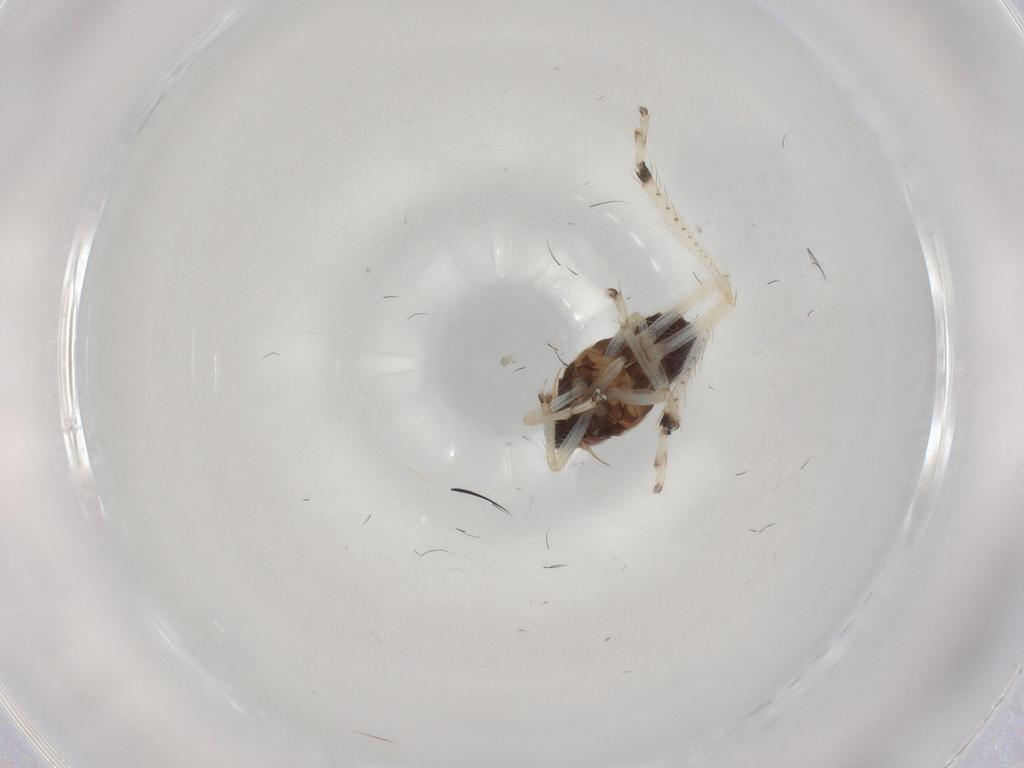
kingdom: Animalia
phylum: Arthropoda
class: Insecta
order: Hemiptera
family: Cicadellidae
